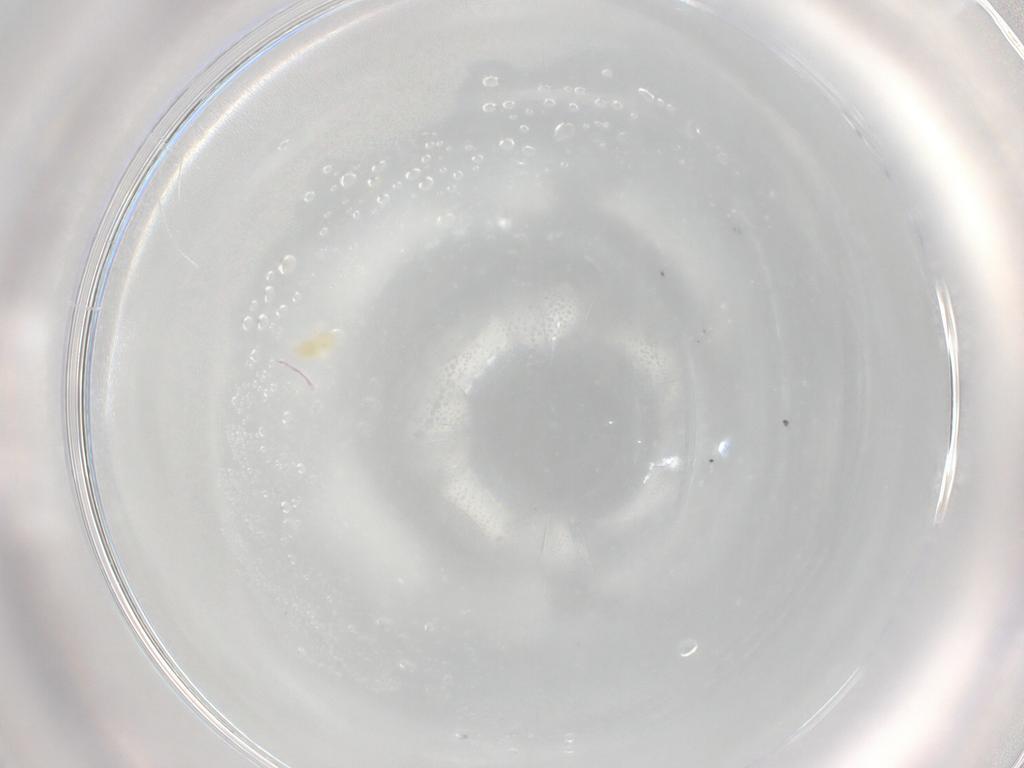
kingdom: Animalia
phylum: Arthropoda
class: Arachnida
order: Trombidiformes
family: Eupodidae
